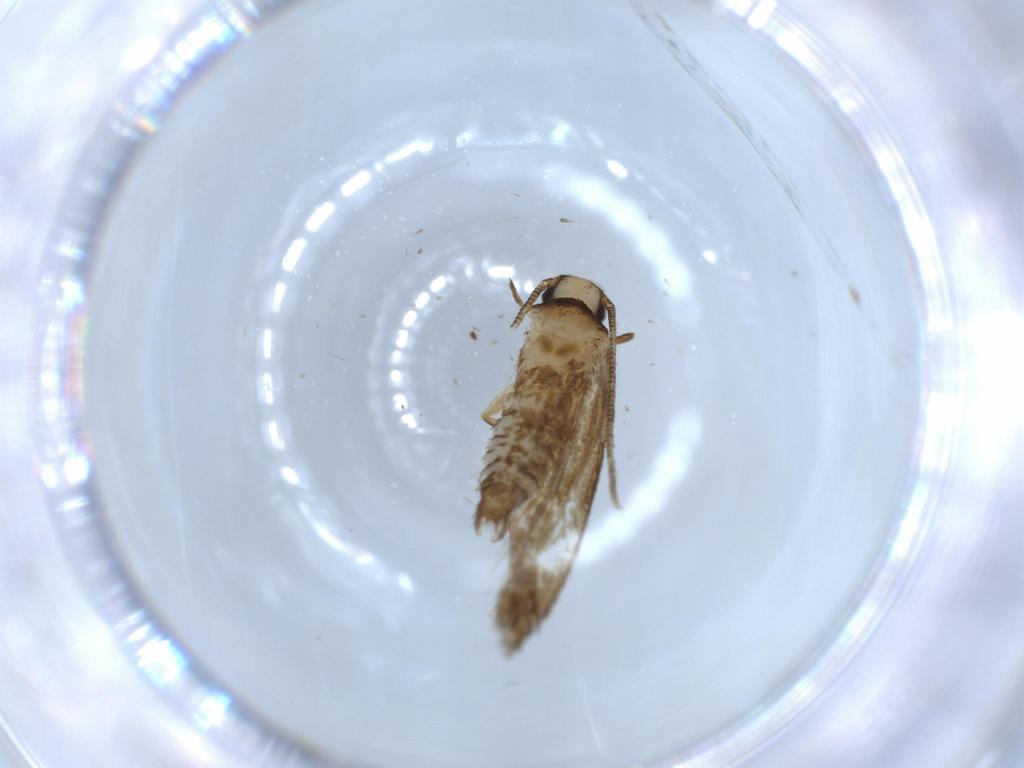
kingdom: Animalia
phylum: Arthropoda
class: Insecta
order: Lepidoptera
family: Tineidae
